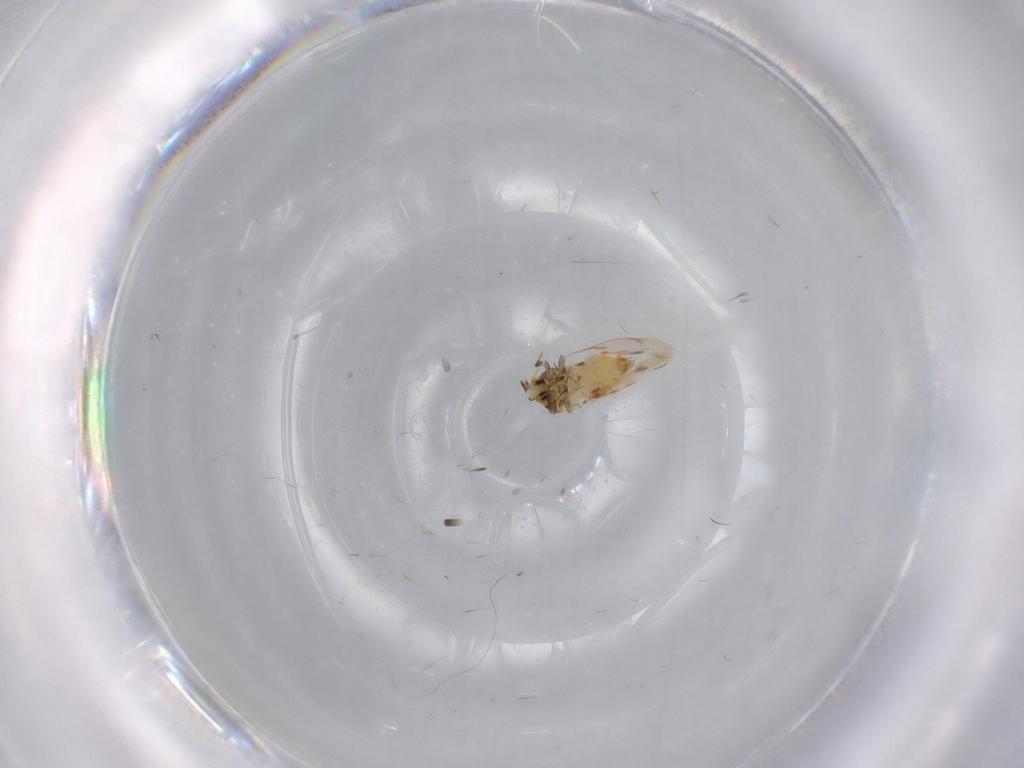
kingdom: Animalia
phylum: Arthropoda
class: Insecta
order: Hemiptera
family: Aleyrodidae
